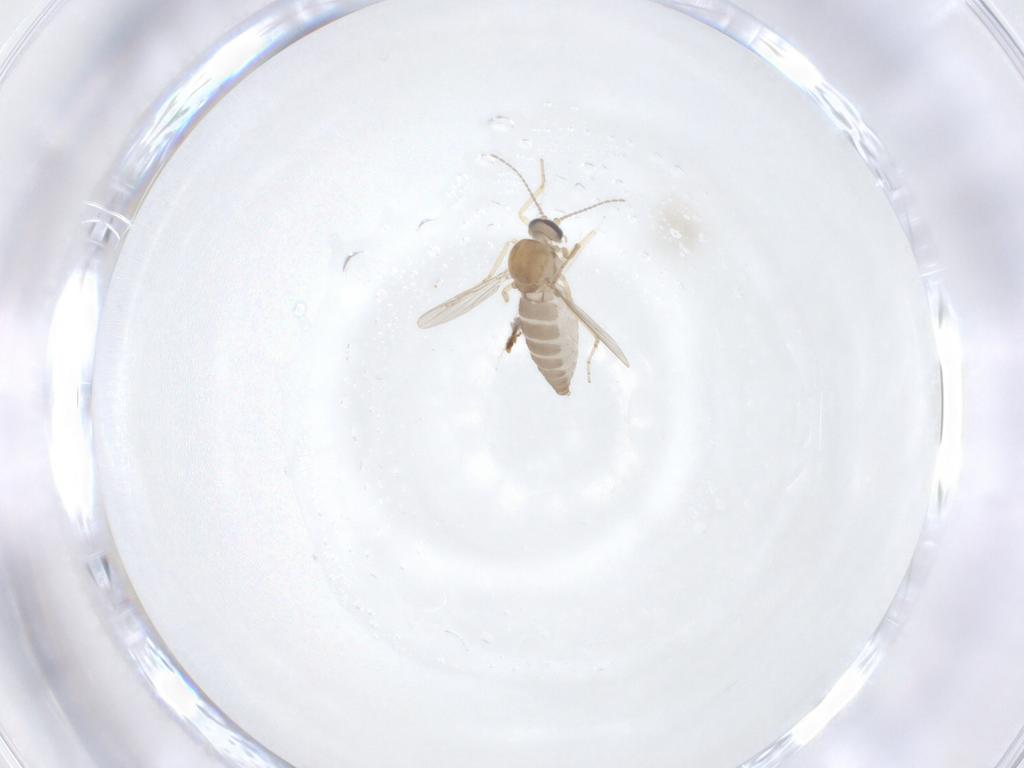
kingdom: Animalia
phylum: Arthropoda
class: Insecta
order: Diptera
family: Ceratopogonidae
